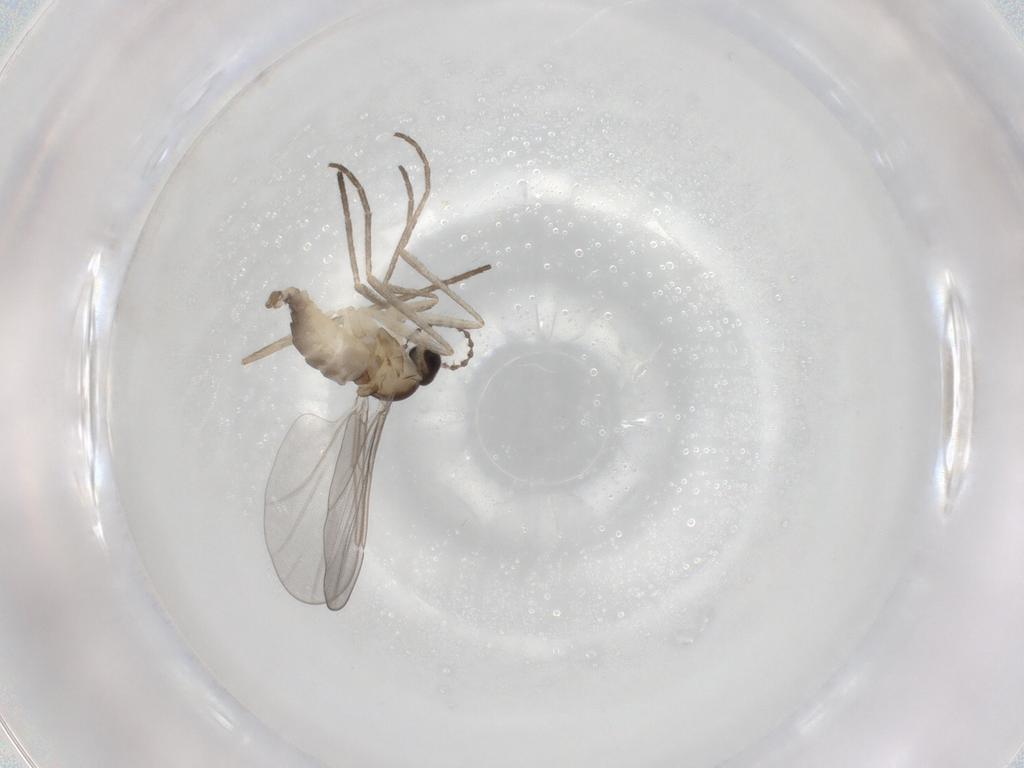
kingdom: Animalia
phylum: Arthropoda
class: Insecta
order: Diptera
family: Cecidomyiidae
